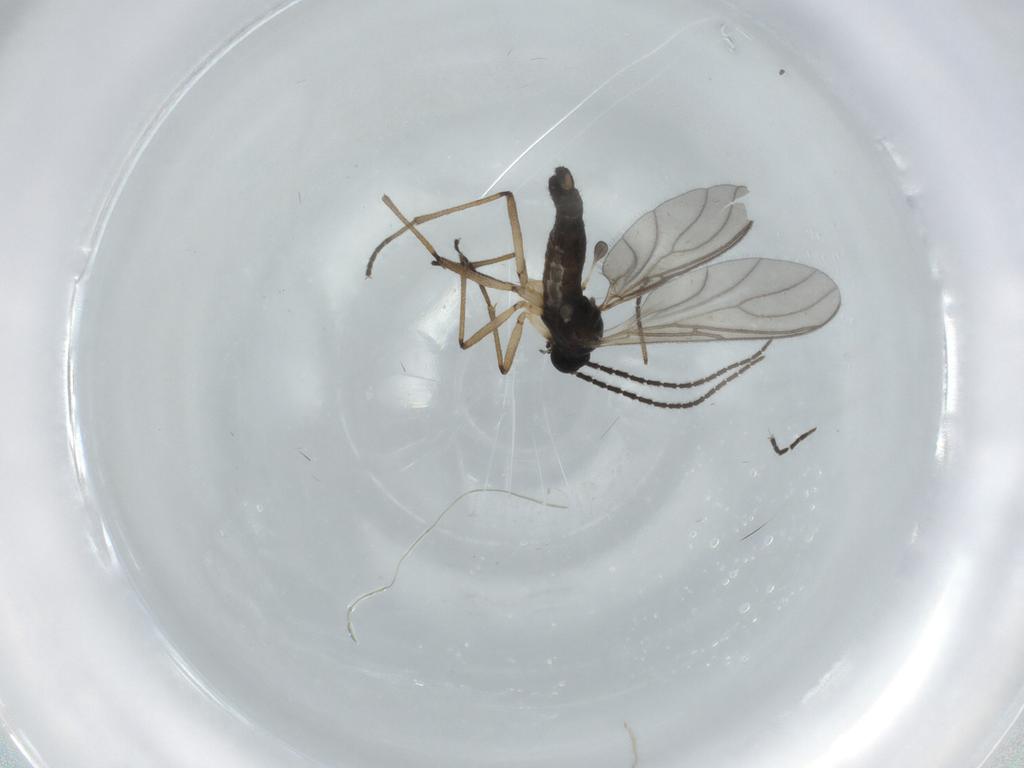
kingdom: Animalia
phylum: Arthropoda
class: Insecta
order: Diptera
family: Sciaridae
